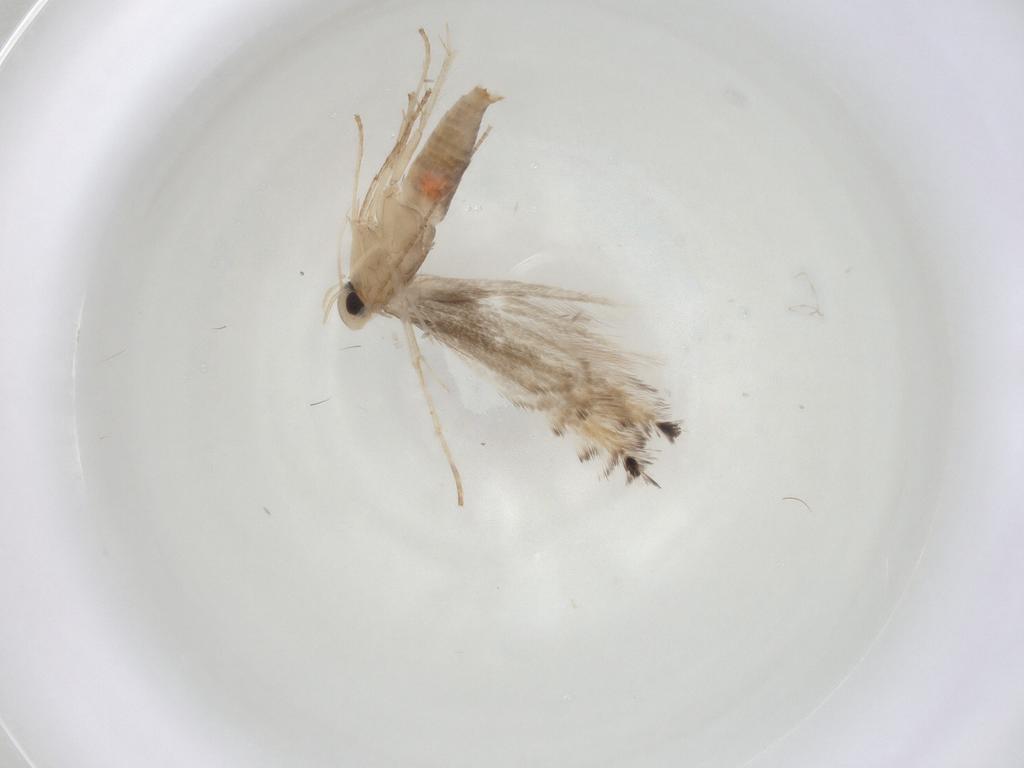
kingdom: Animalia
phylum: Arthropoda
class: Insecta
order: Lepidoptera
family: Gracillariidae
